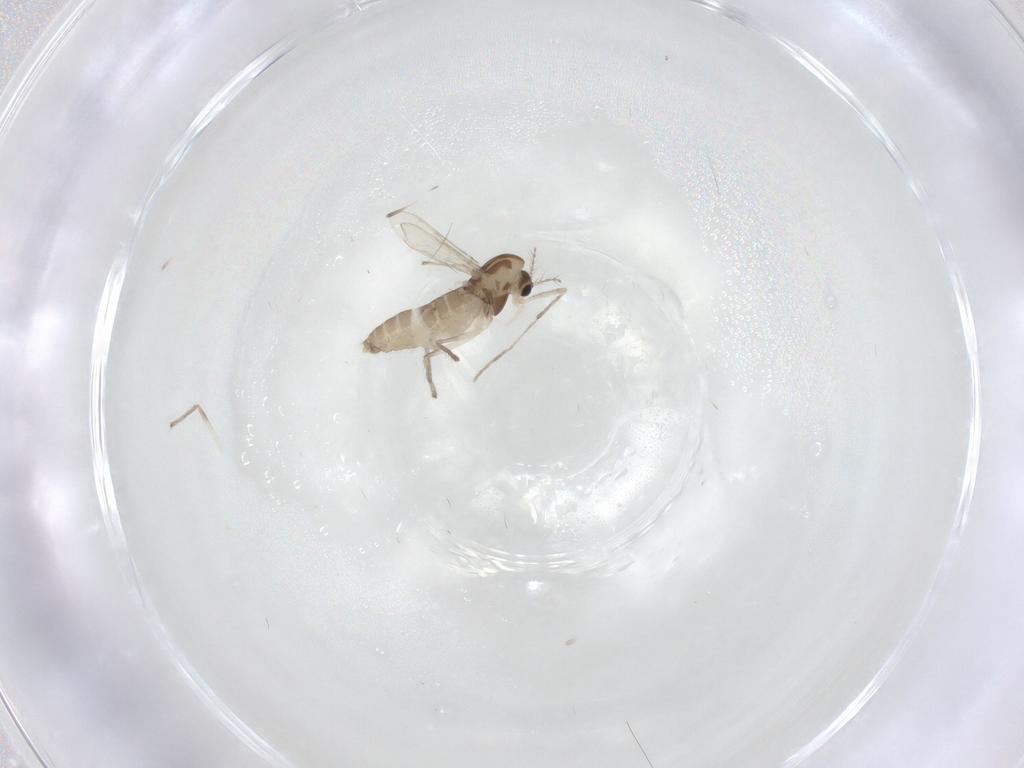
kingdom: Animalia
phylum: Arthropoda
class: Insecta
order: Diptera
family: Chironomidae
